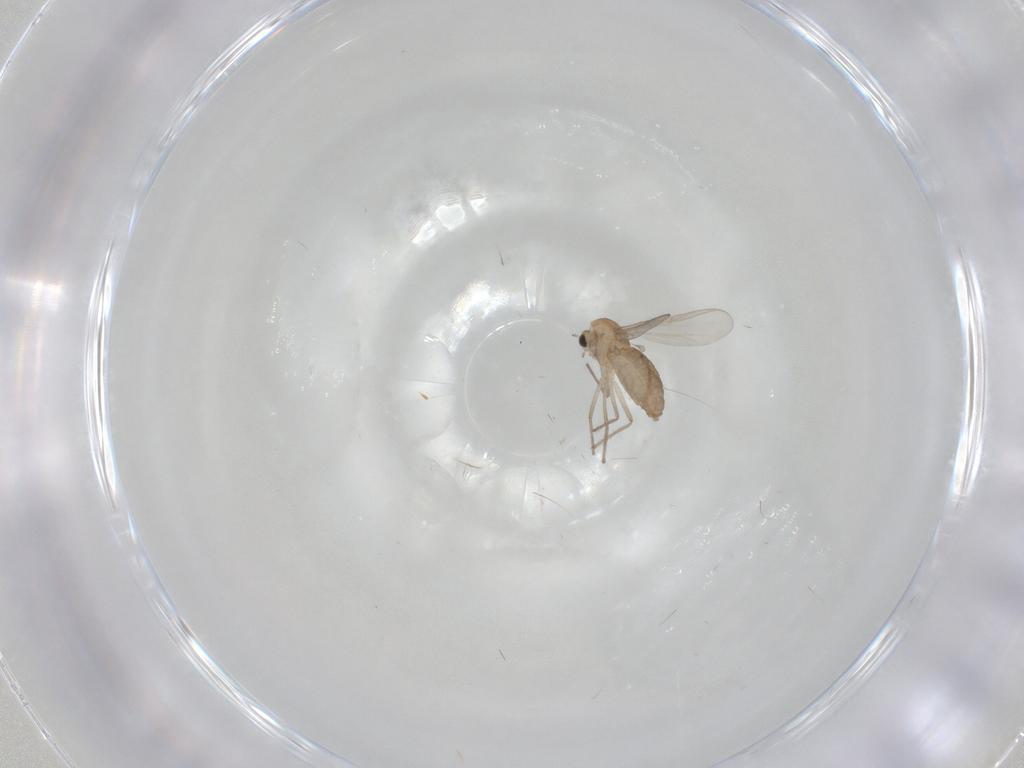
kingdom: Animalia
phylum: Arthropoda
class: Insecta
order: Diptera
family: Chironomidae
